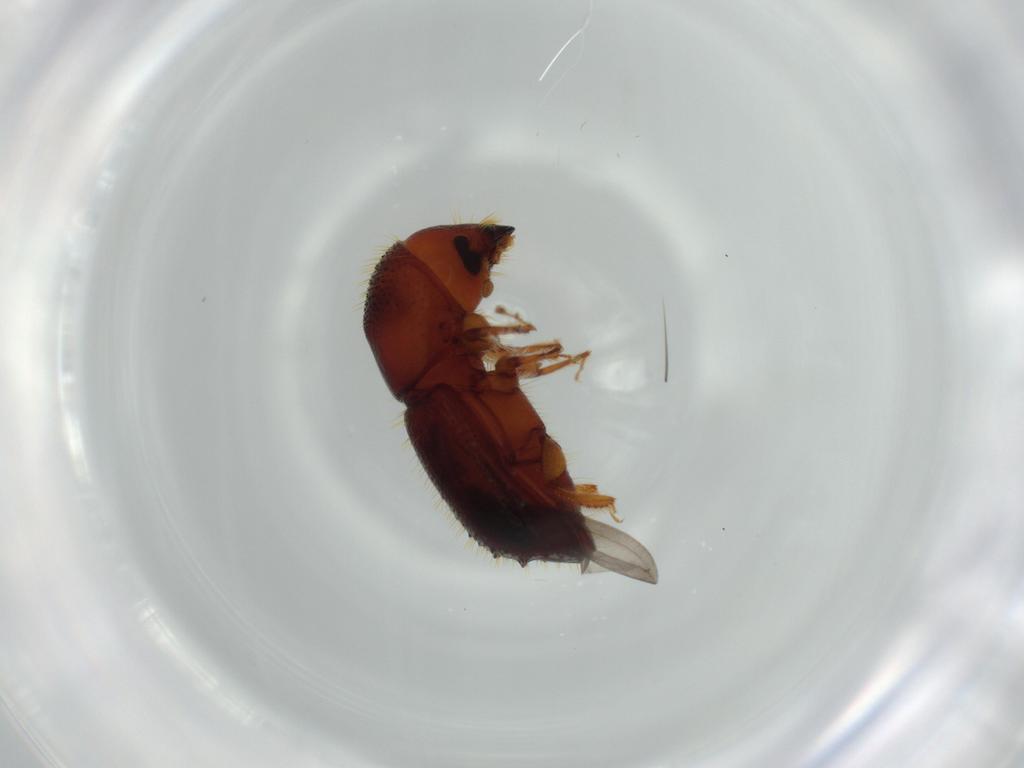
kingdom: Animalia
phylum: Arthropoda
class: Insecta
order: Coleoptera
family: Curculionidae
